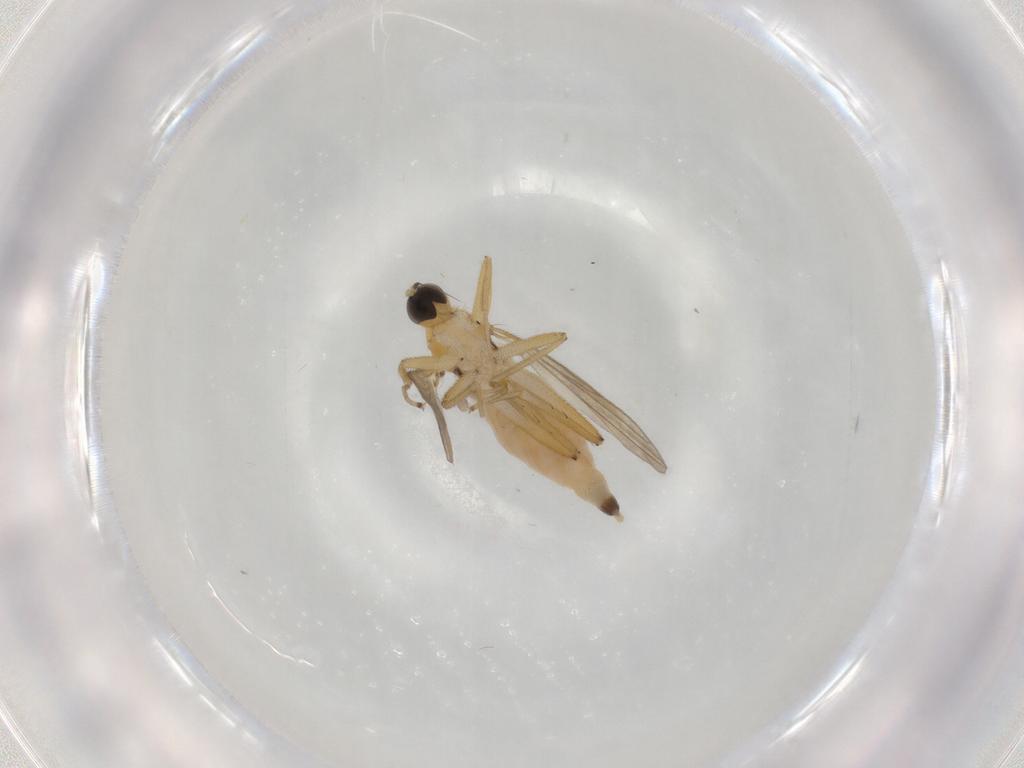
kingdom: Animalia
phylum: Arthropoda
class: Insecta
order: Diptera
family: Hybotidae
